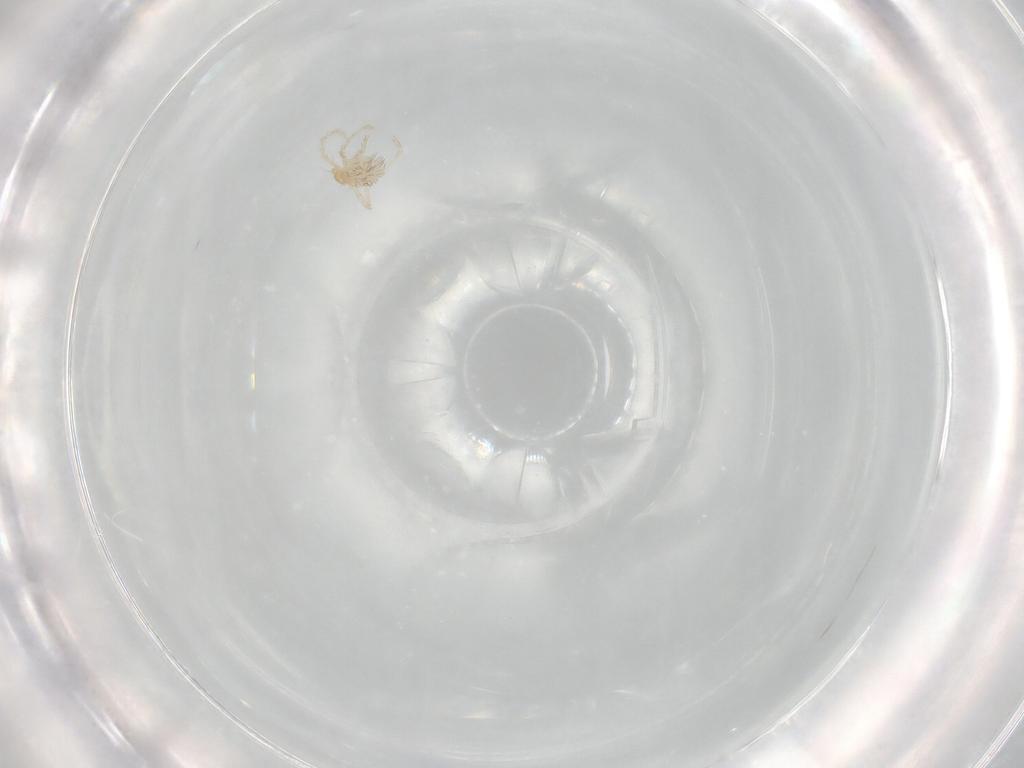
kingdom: Animalia
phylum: Arthropoda
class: Arachnida
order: Trombidiformes
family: Erythraeidae
